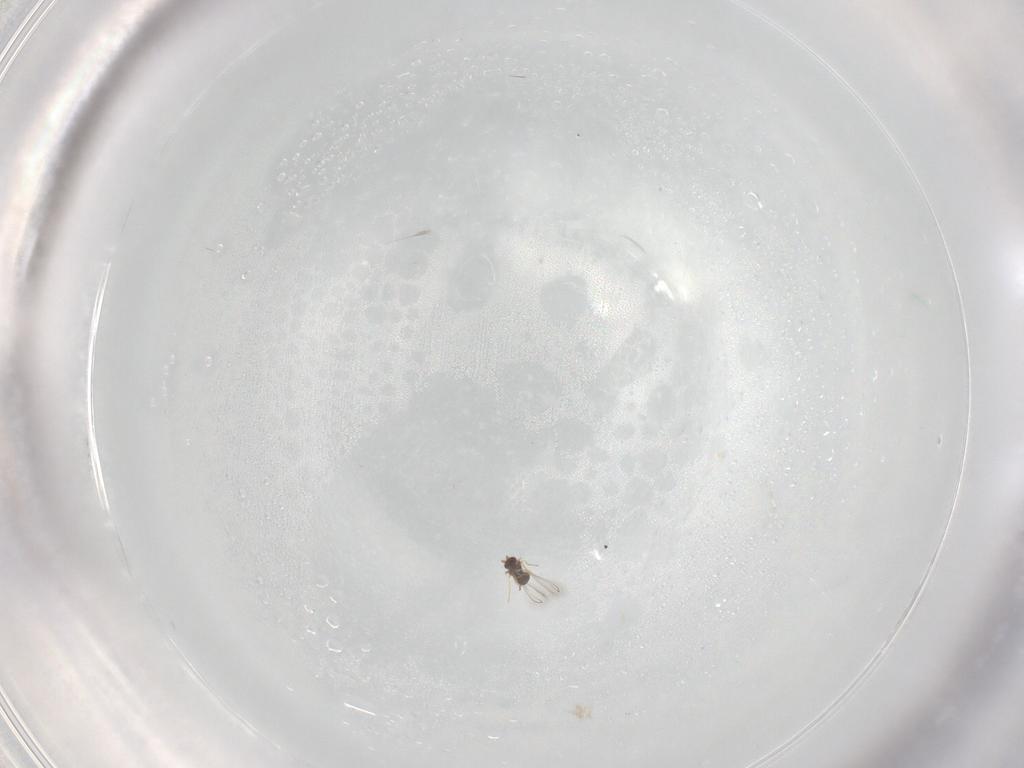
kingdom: Animalia
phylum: Arthropoda
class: Insecta
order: Hymenoptera
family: Mymaridae
